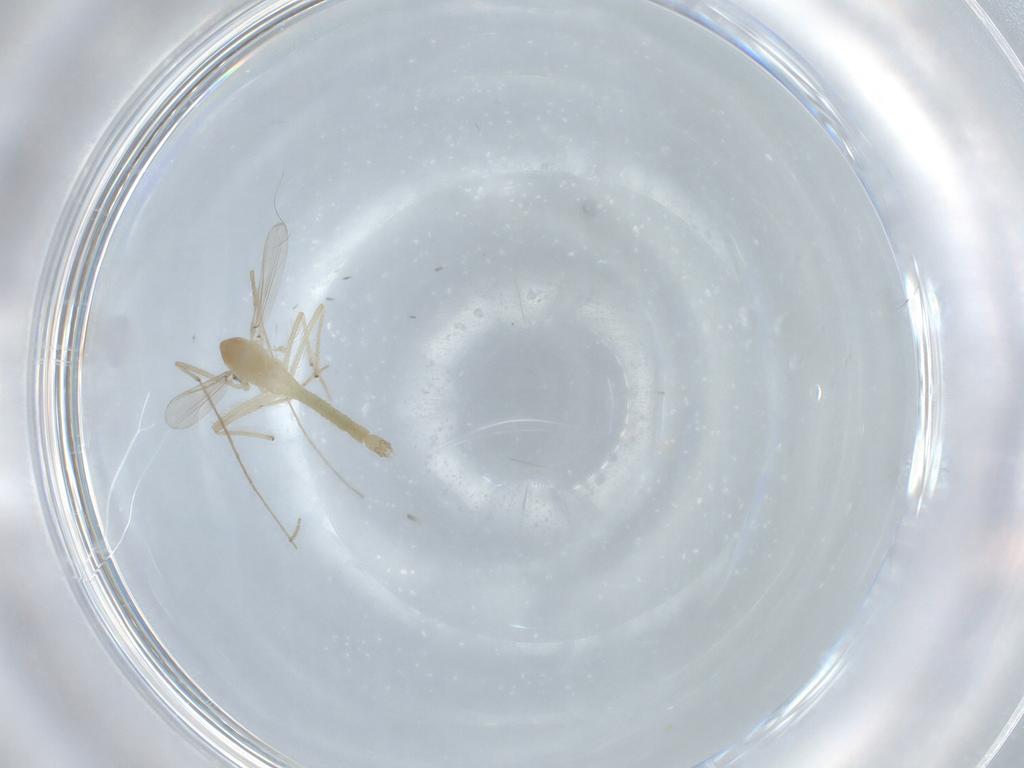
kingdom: Animalia
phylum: Arthropoda
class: Insecta
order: Diptera
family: Chironomidae
